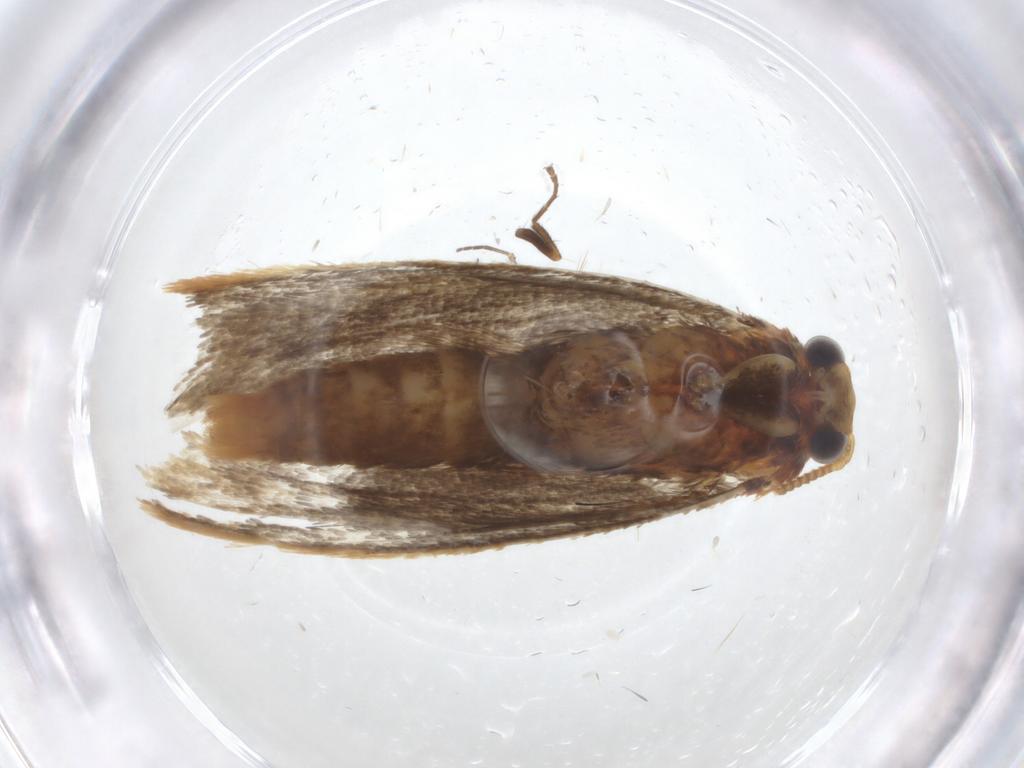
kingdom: Animalia
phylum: Arthropoda
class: Insecta
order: Lepidoptera
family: Tineidae
